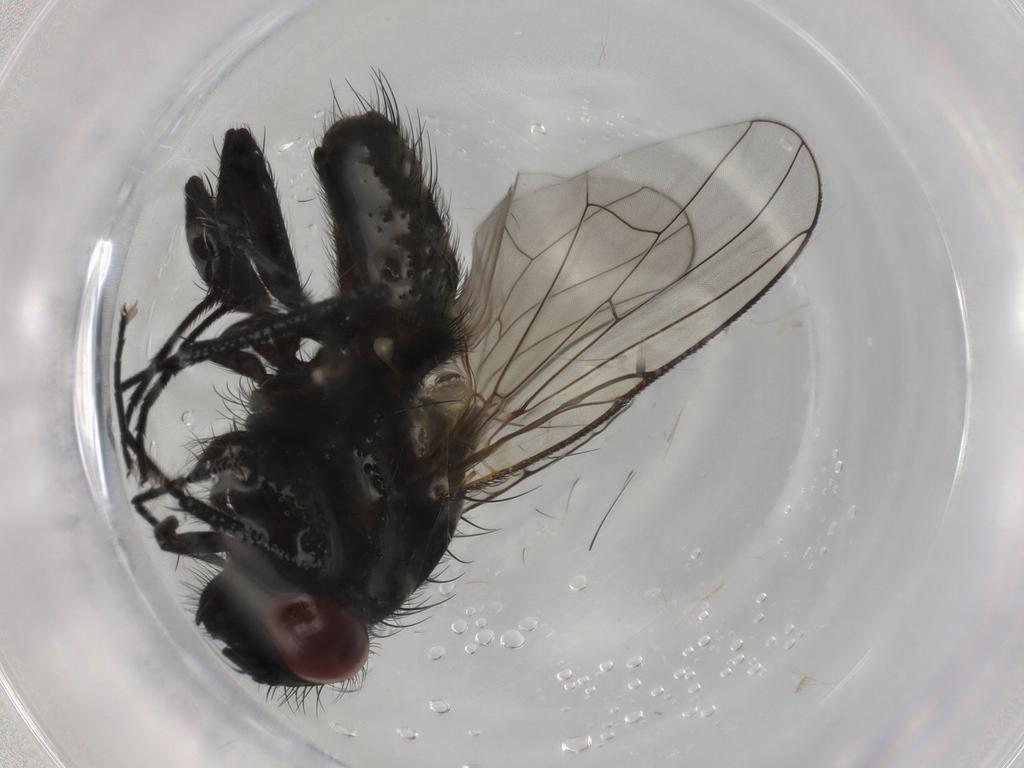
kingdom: Animalia
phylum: Arthropoda
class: Insecta
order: Diptera
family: Muscidae
